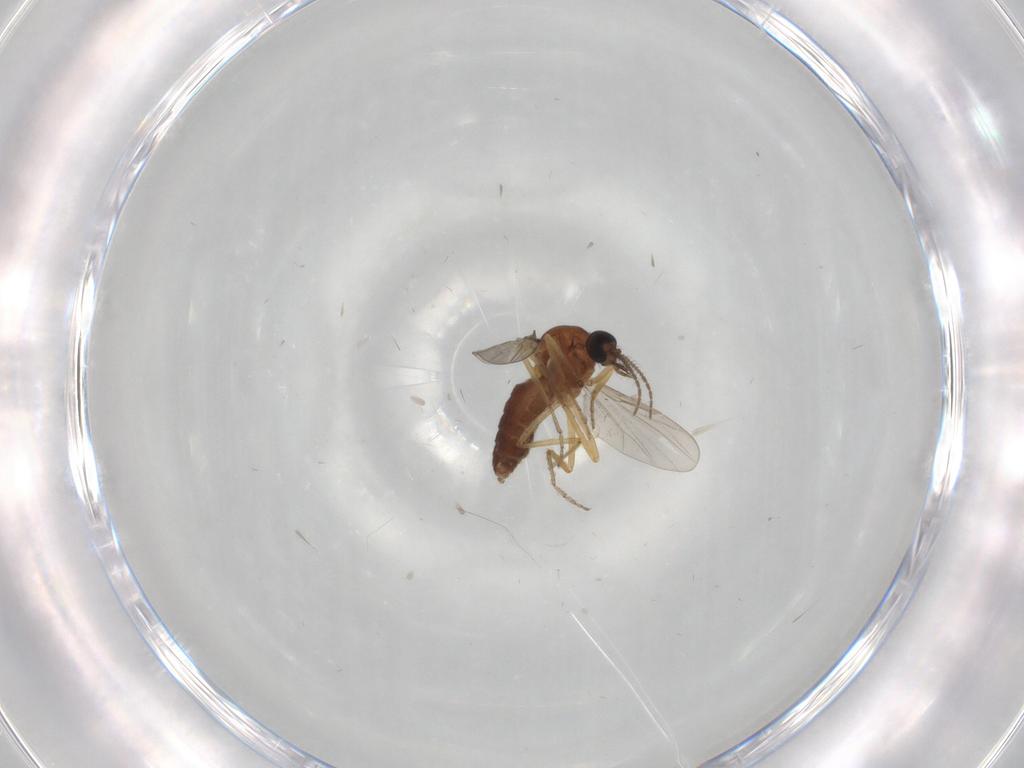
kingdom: Animalia
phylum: Arthropoda
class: Insecta
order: Diptera
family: Ceratopogonidae
